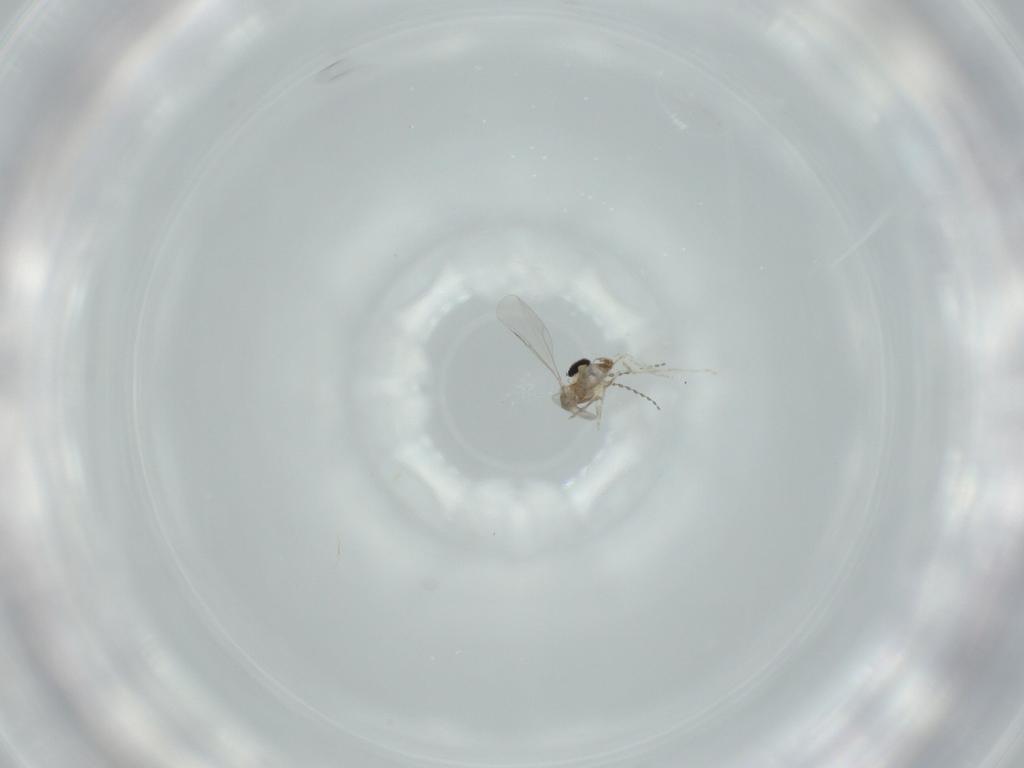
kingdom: Animalia
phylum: Arthropoda
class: Insecta
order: Diptera
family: Cecidomyiidae
